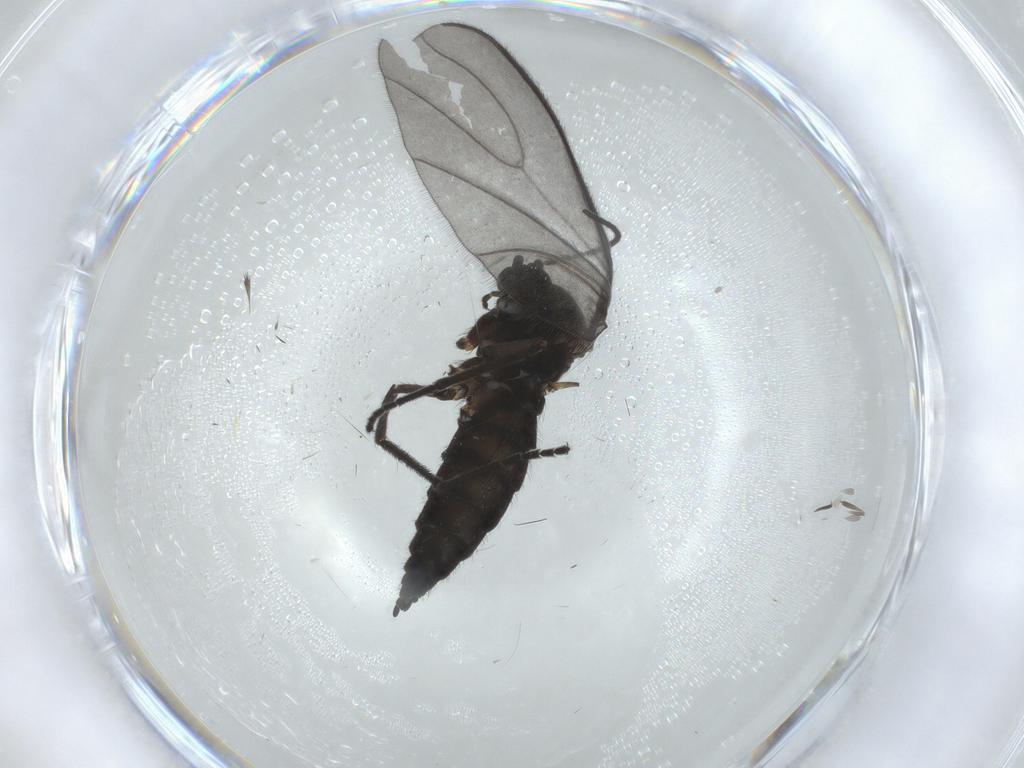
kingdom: Animalia
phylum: Arthropoda
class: Insecta
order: Diptera
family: Sciaridae
